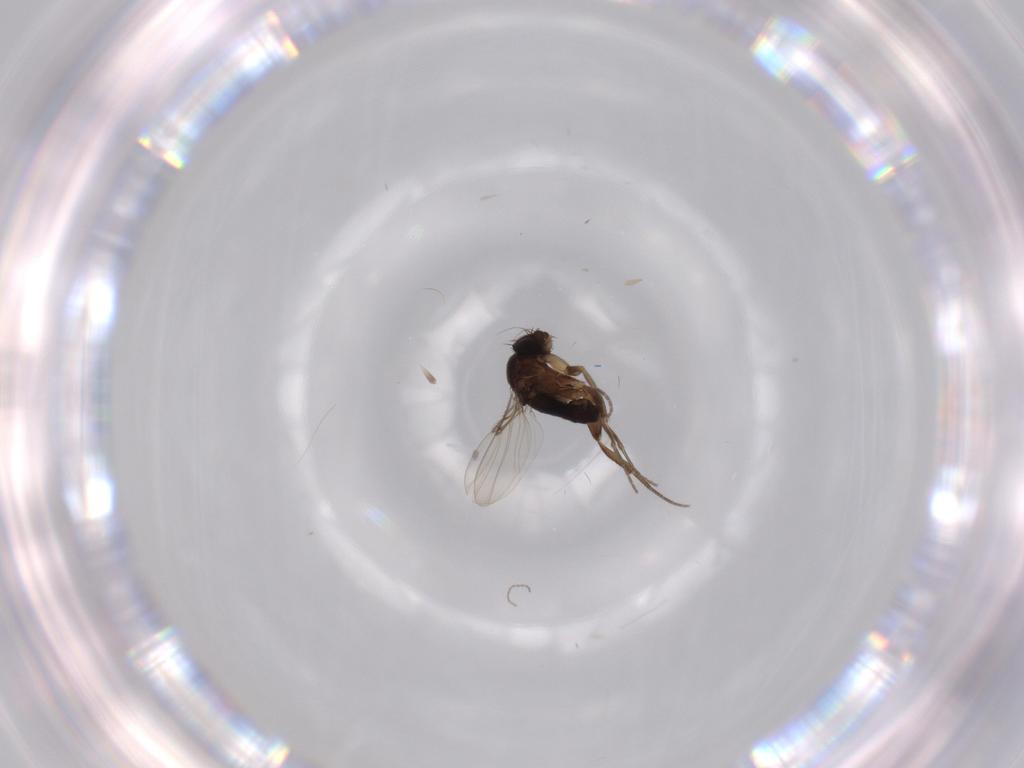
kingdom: Animalia
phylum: Arthropoda
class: Insecta
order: Diptera
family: Phoridae
